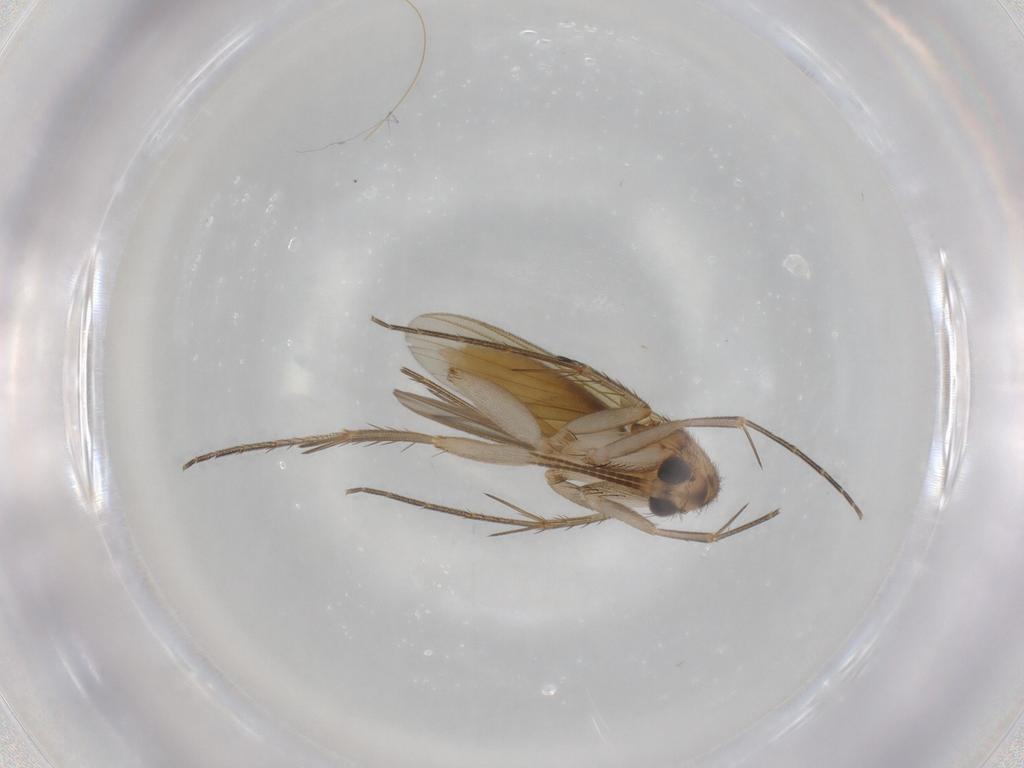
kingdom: Animalia
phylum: Arthropoda
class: Insecta
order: Diptera
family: Mycetophilidae
